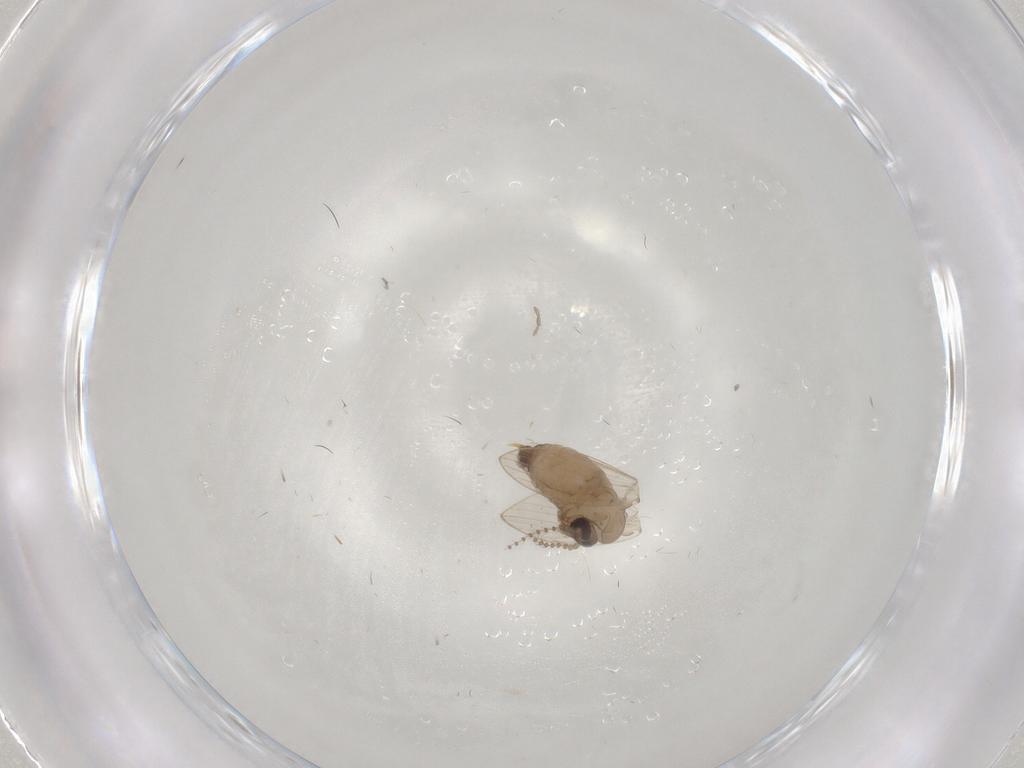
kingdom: Animalia
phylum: Arthropoda
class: Insecta
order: Diptera
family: Psychodidae
